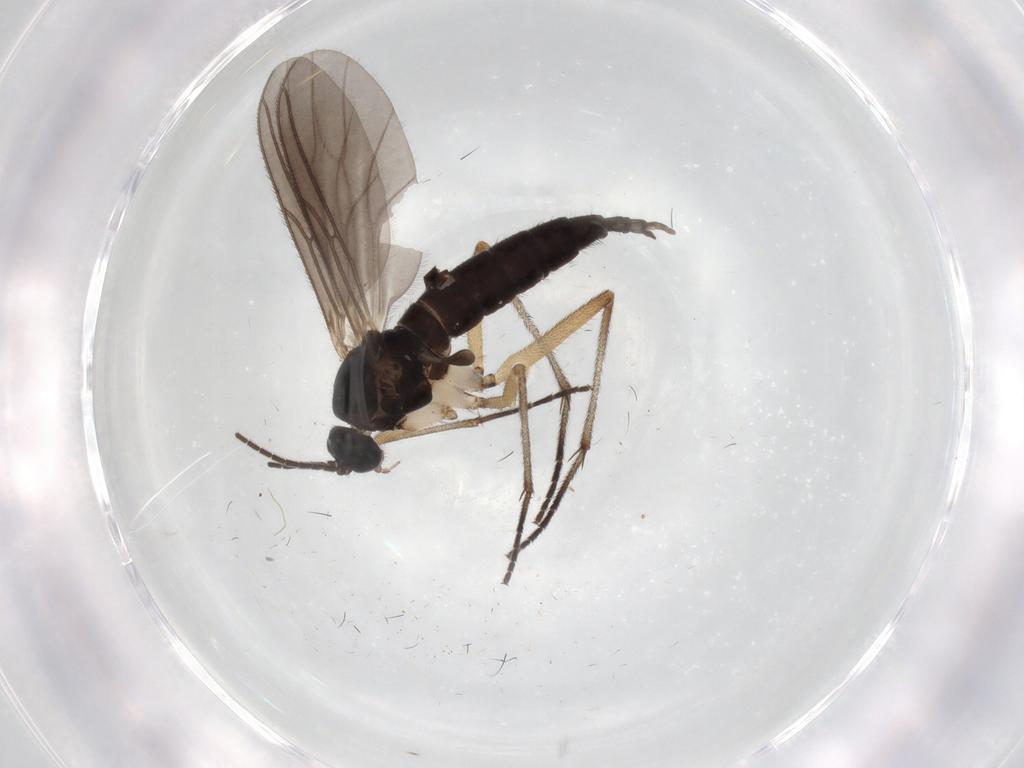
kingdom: Animalia
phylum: Arthropoda
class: Insecta
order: Diptera
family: Sciaridae
